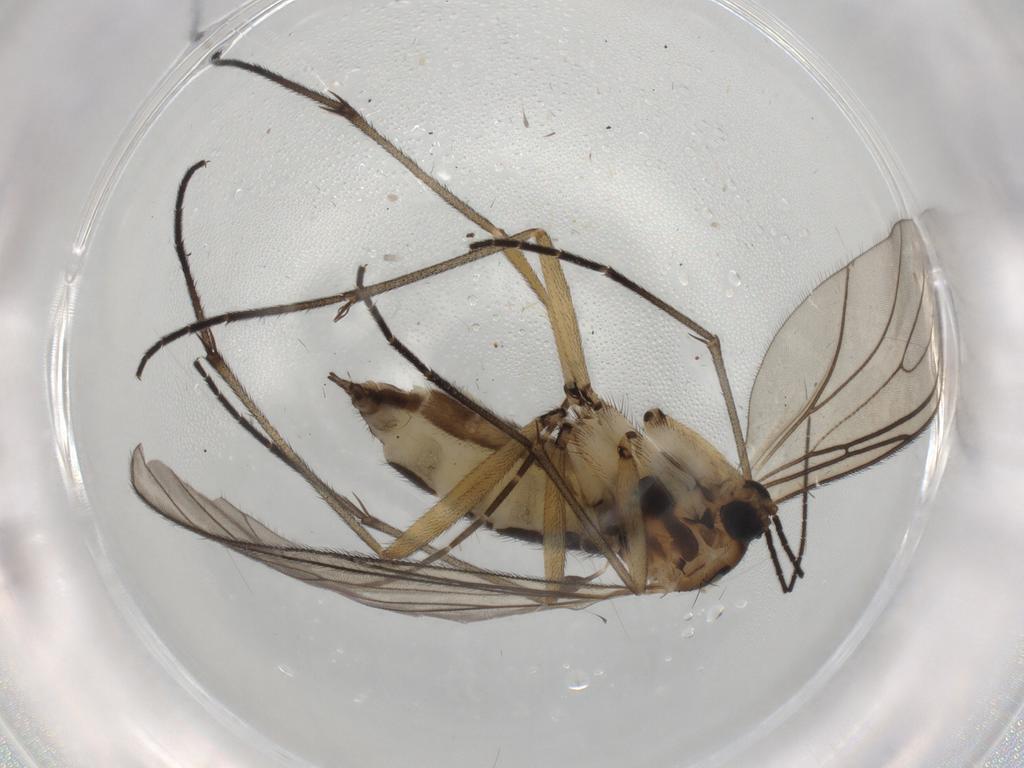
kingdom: Animalia
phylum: Arthropoda
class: Insecta
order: Diptera
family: Sciaridae
